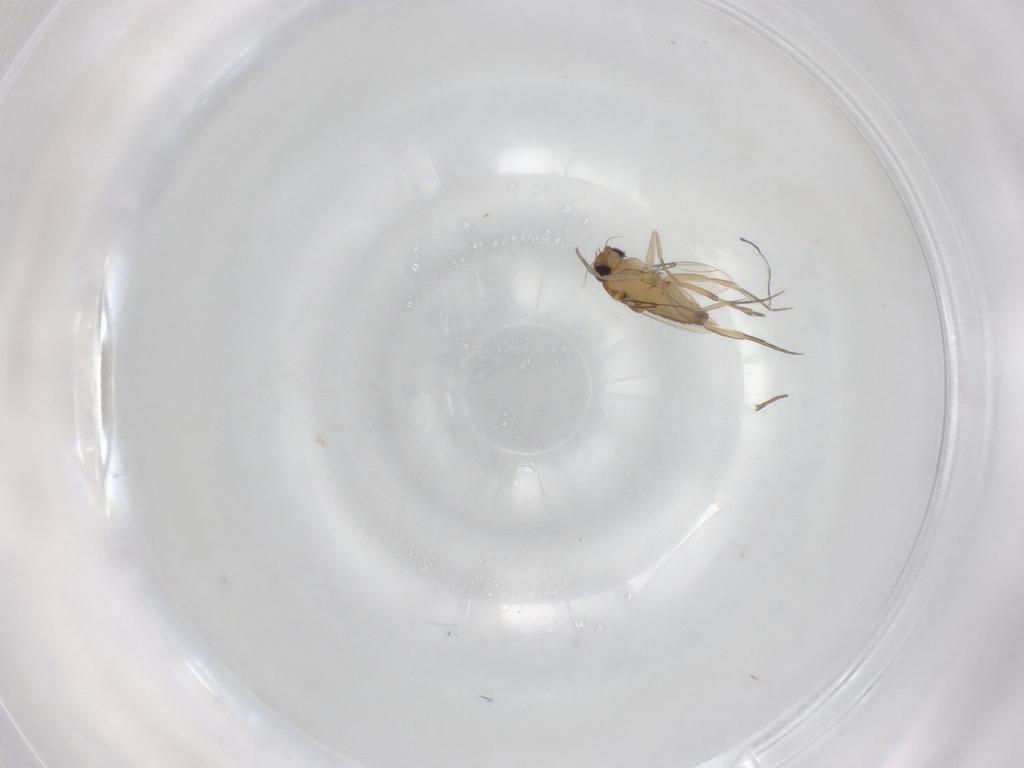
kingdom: Animalia
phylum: Arthropoda
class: Insecta
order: Diptera
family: Phoridae
